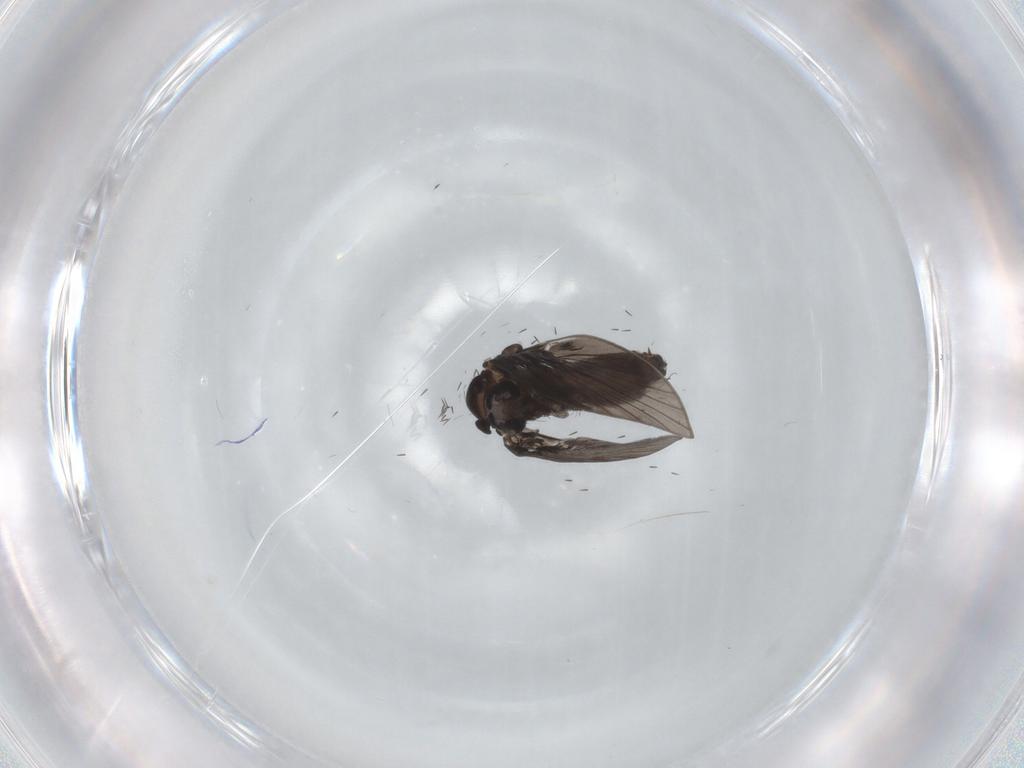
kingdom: Animalia
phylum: Arthropoda
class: Insecta
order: Diptera
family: Psychodidae
